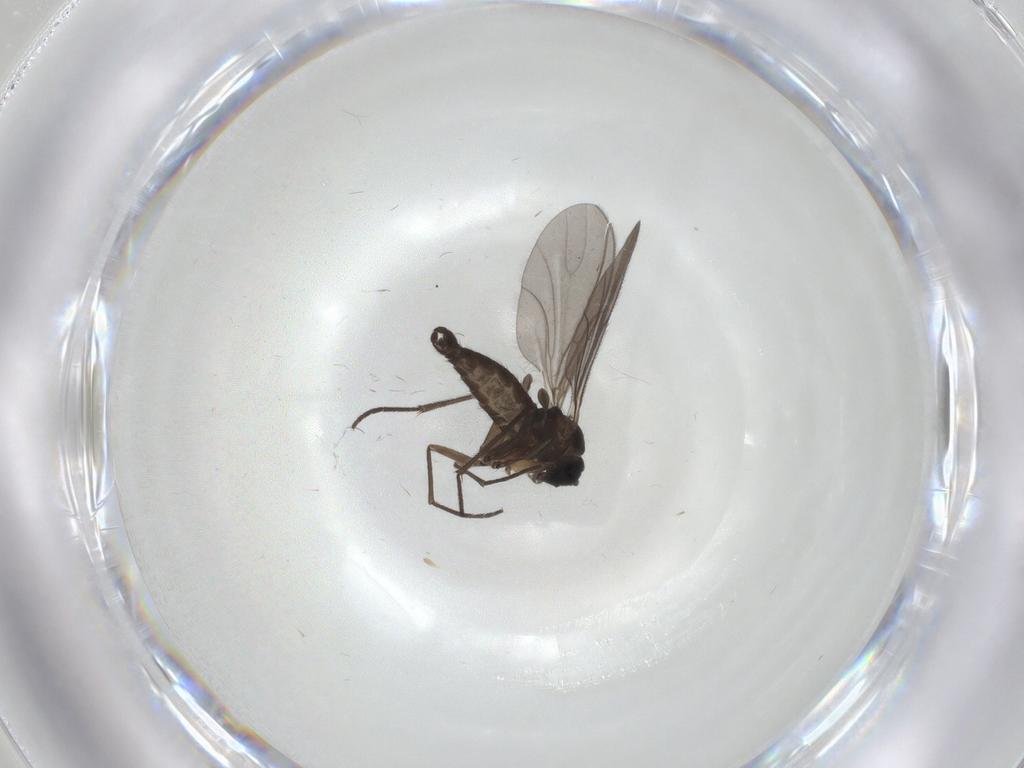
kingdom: Animalia
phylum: Arthropoda
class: Insecta
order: Diptera
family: Sciaridae
